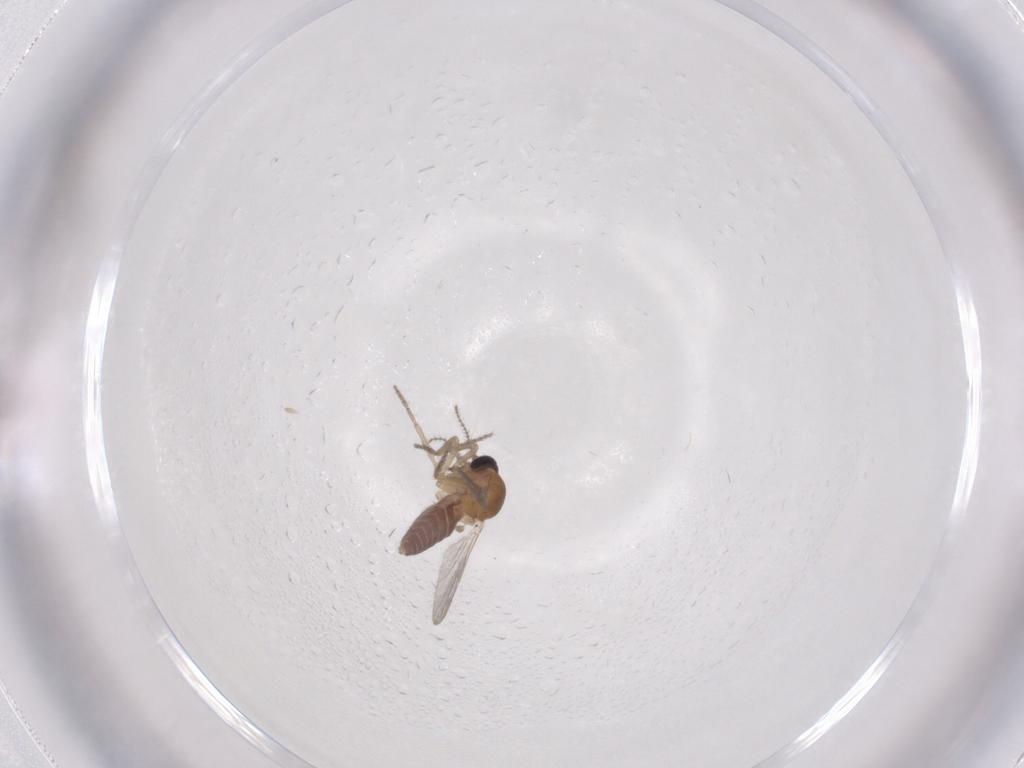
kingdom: Animalia
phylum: Arthropoda
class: Insecta
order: Diptera
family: Ceratopogonidae
